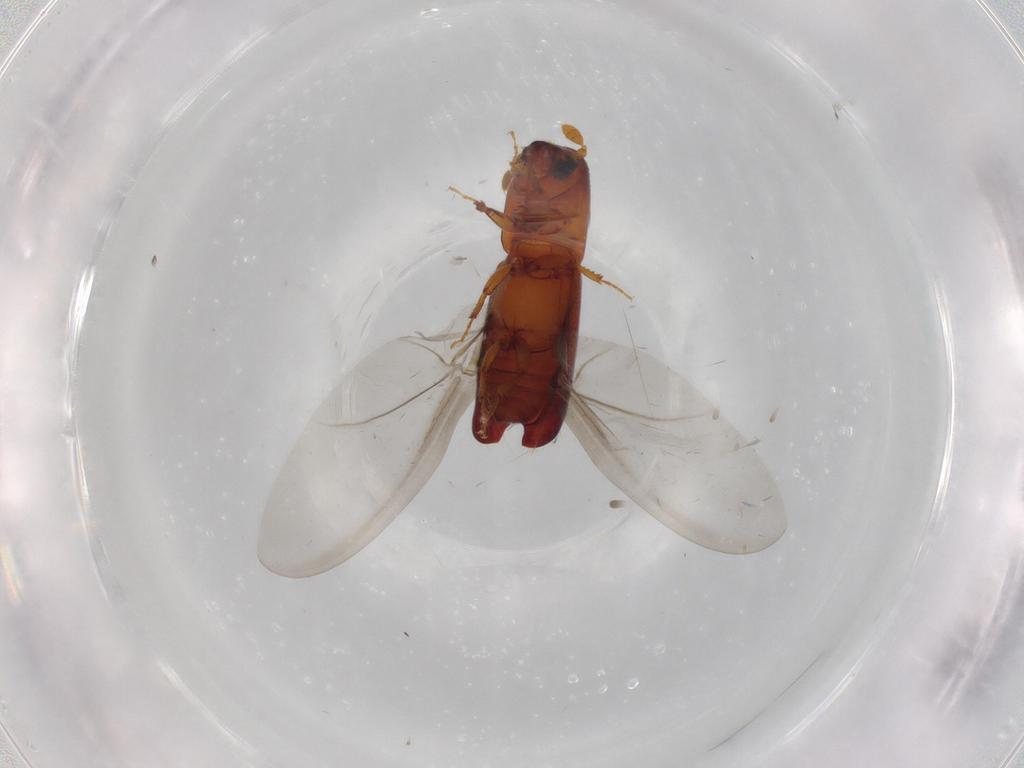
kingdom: Animalia
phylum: Arthropoda
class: Insecta
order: Coleoptera
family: Curculionidae
